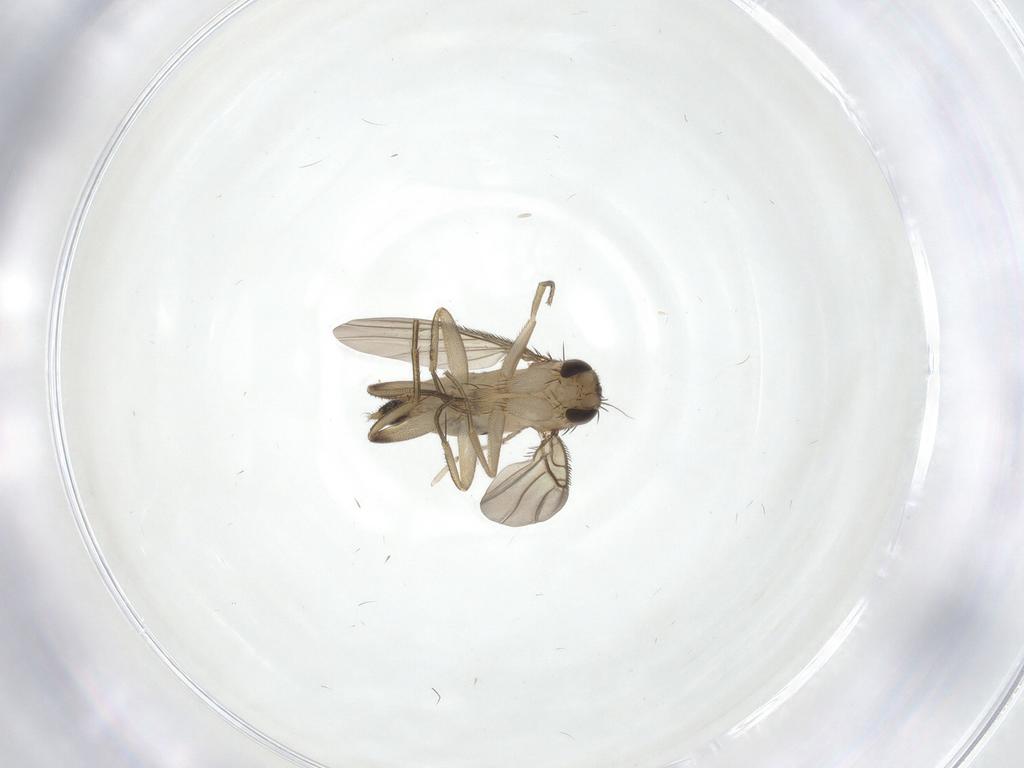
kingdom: Animalia
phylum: Arthropoda
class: Insecta
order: Diptera
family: Phoridae
